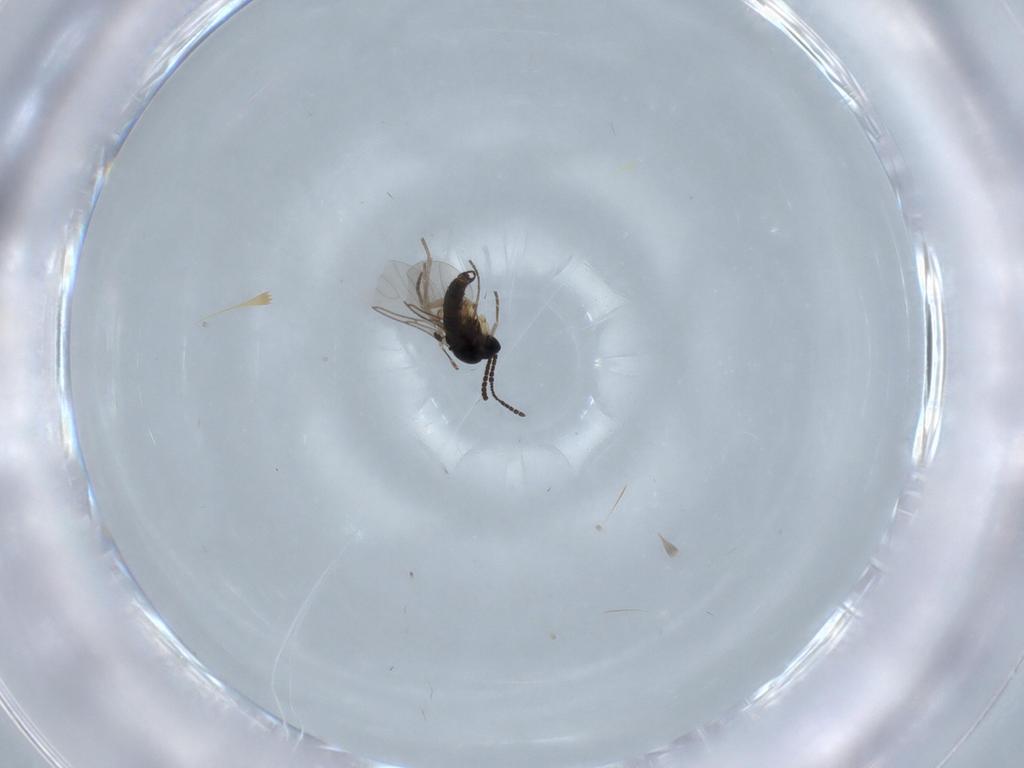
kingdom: Animalia
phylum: Arthropoda
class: Insecta
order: Diptera
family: Sciaridae
